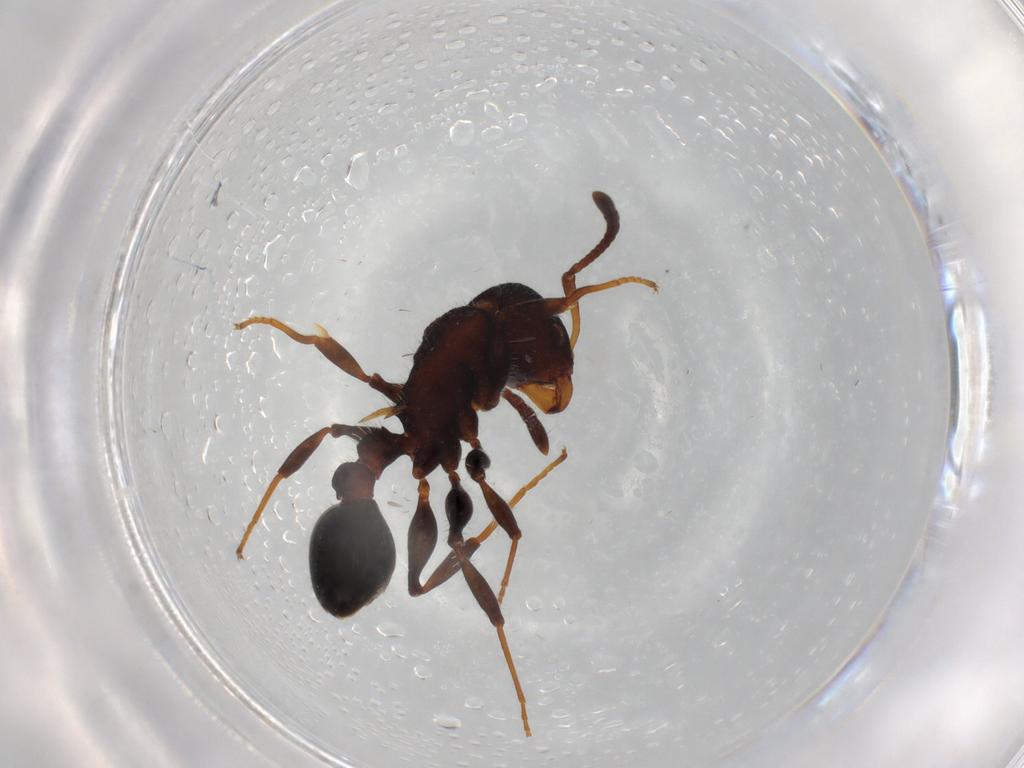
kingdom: Animalia
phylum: Arthropoda
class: Insecta
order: Hymenoptera
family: Formicidae
